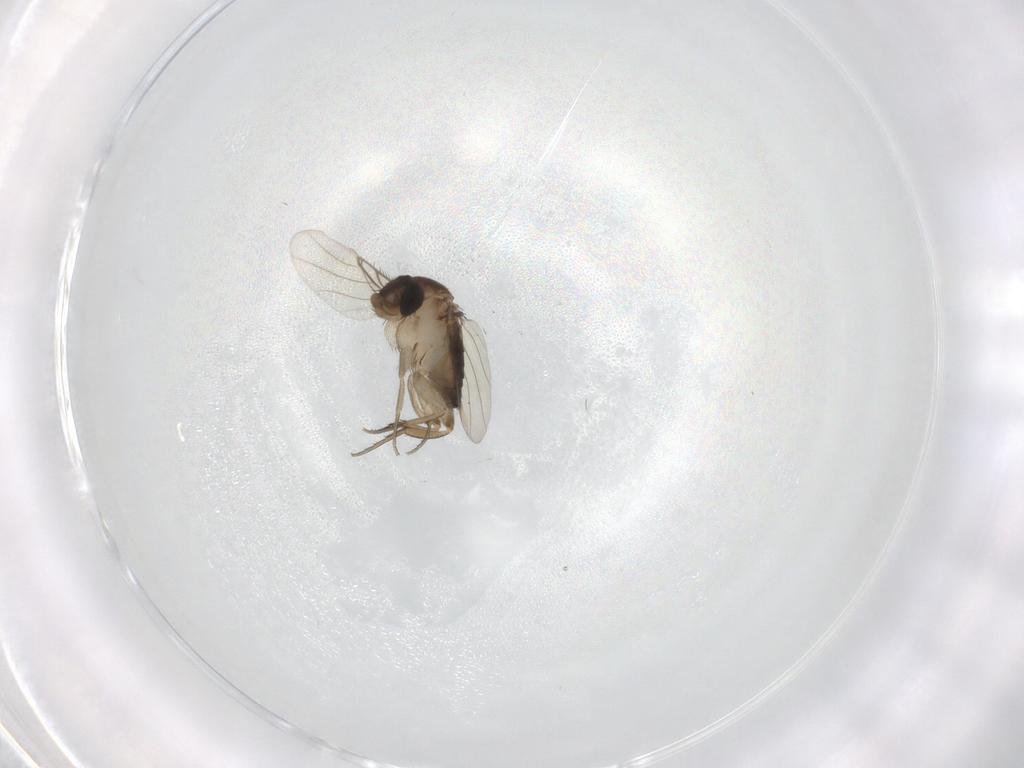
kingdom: Animalia
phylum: Arthropoda
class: Insecta
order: Diptera
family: Phoridae
